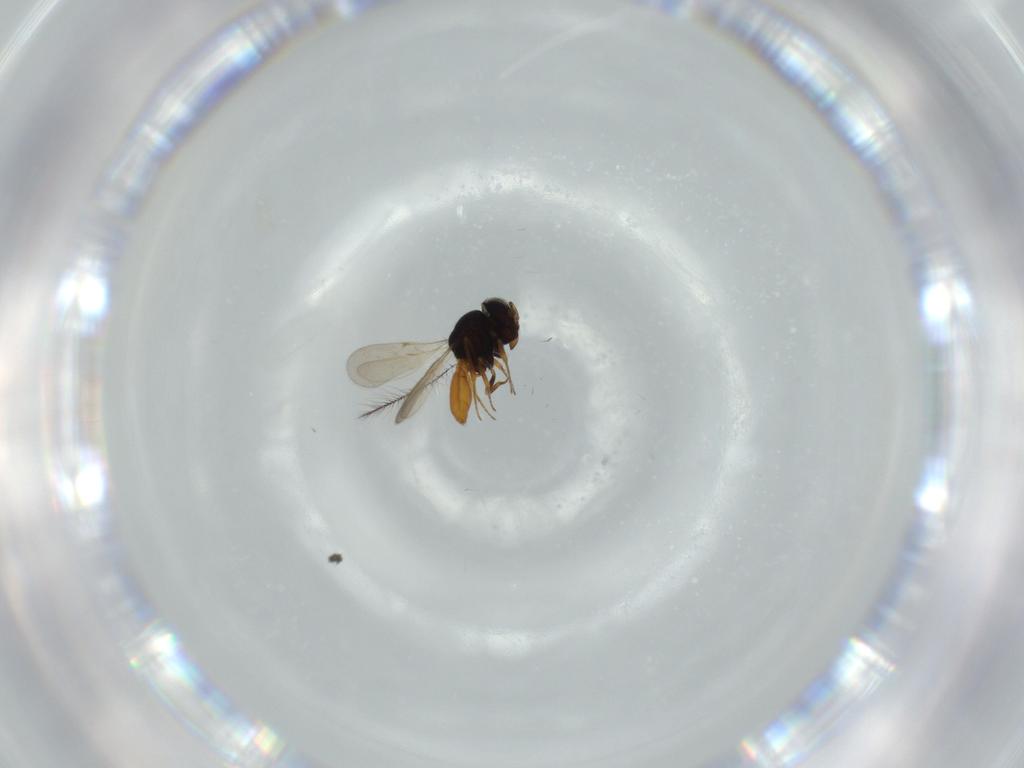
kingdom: Animalia
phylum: Arthropoda
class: Insecta
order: Hymenoptera
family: Scelionidae
